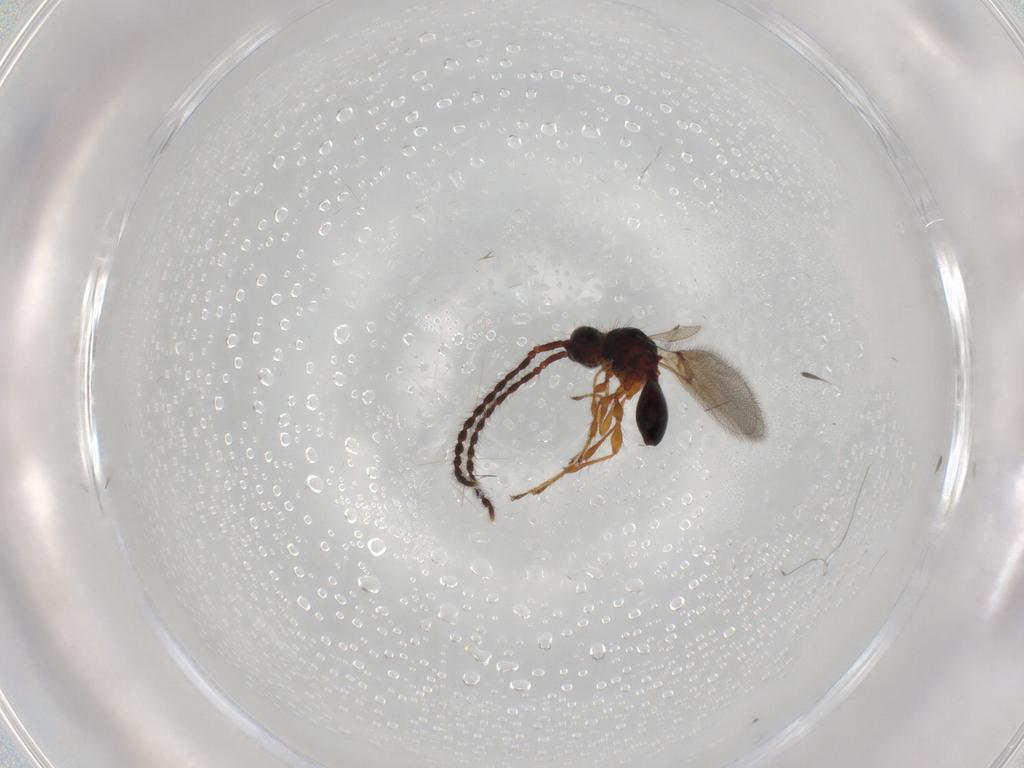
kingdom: Animalia
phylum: Arthropoda
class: Insecta
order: Hymenoptera
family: Diapriidae
